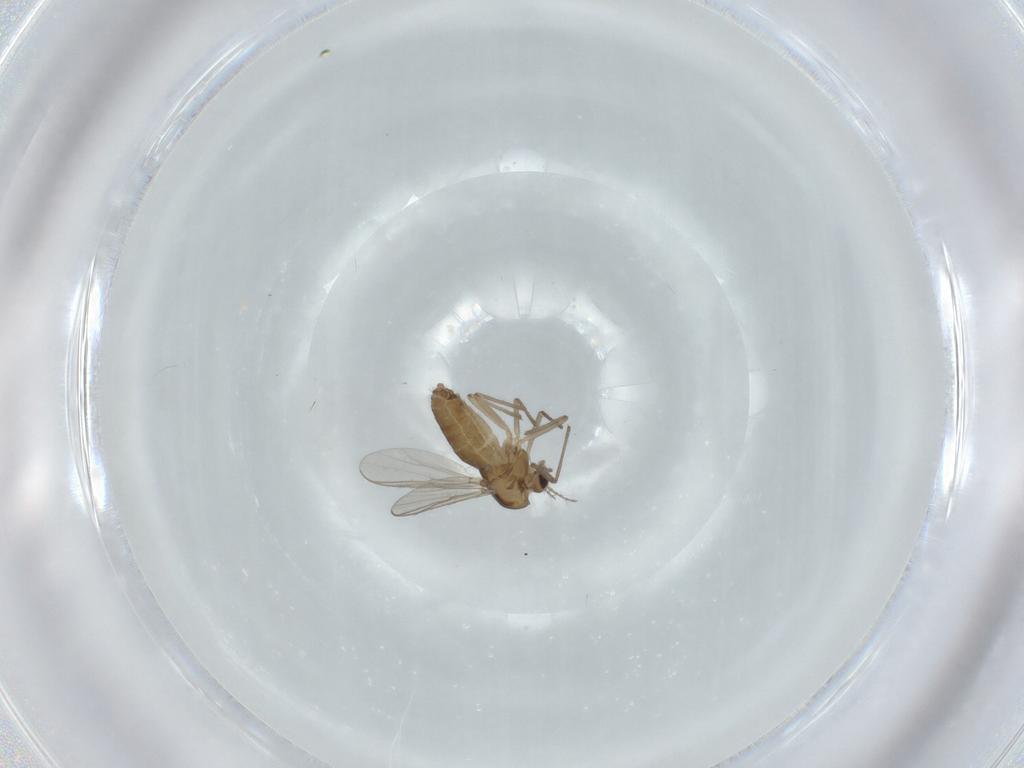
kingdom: Animalia
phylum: Arthropoda
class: Insecta
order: Diptera
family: Chironomidae
